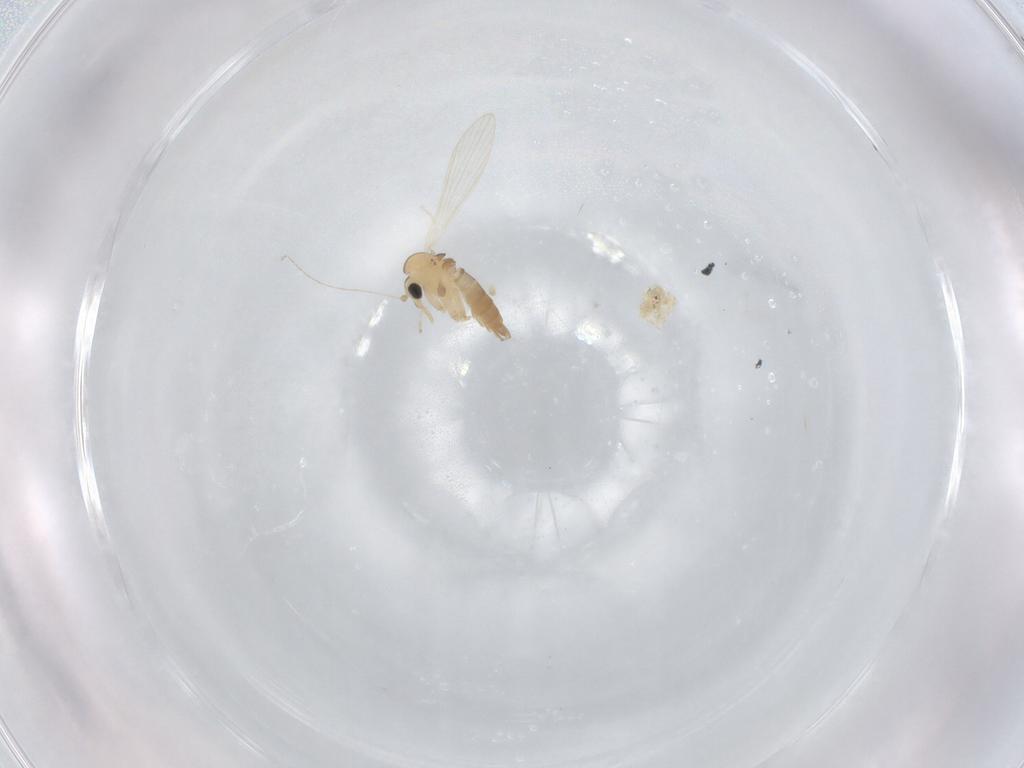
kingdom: Animalia
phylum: Arthropoda
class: Insecta
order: Diptera
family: Psychodidae
